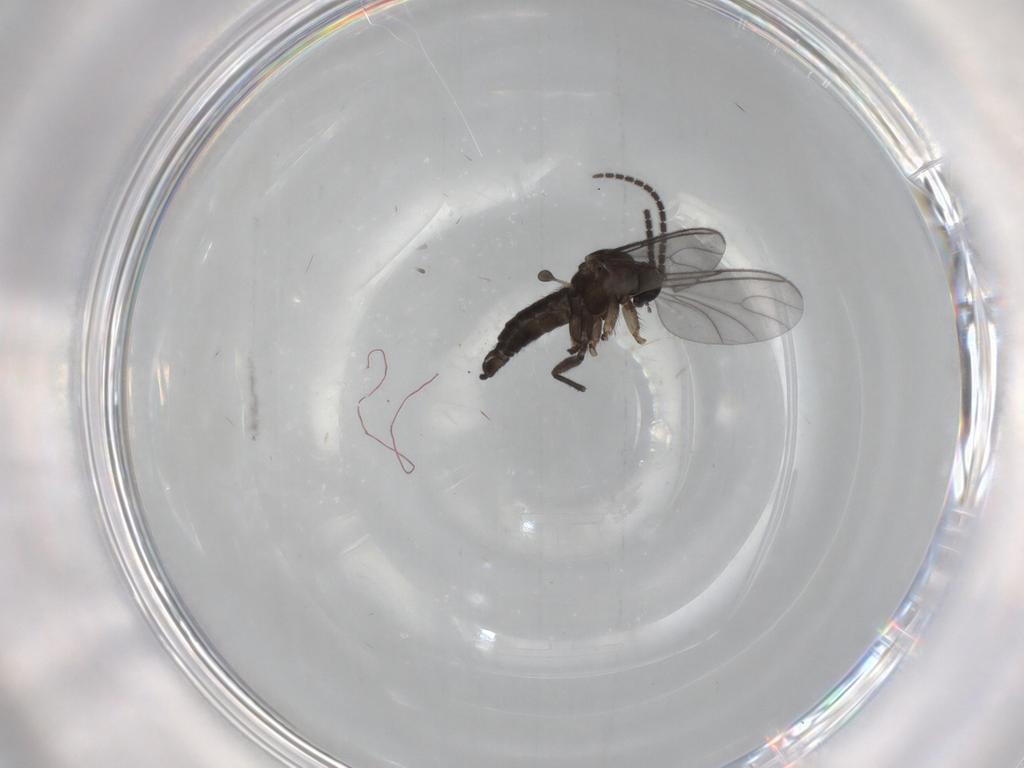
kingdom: Animalia
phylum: Arthropoda
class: Insecta
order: Diptera
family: Sciaridae
